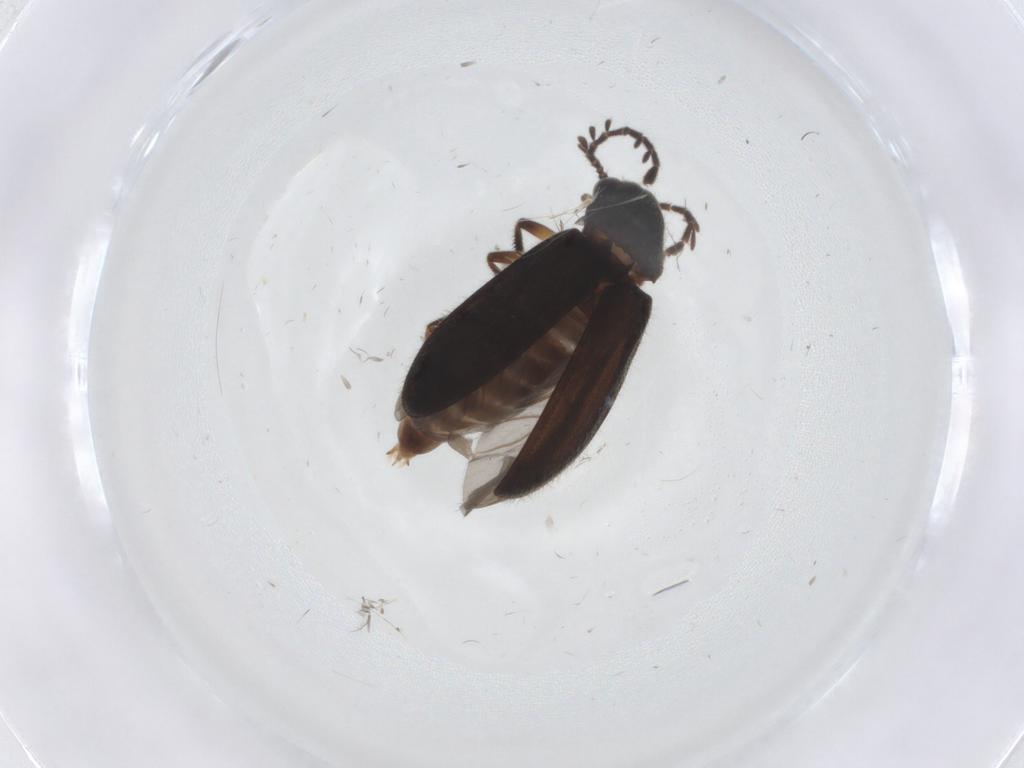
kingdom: Animalia
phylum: Arthropoda
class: Insecta
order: Coleoptera
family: Ptilodactylidae
